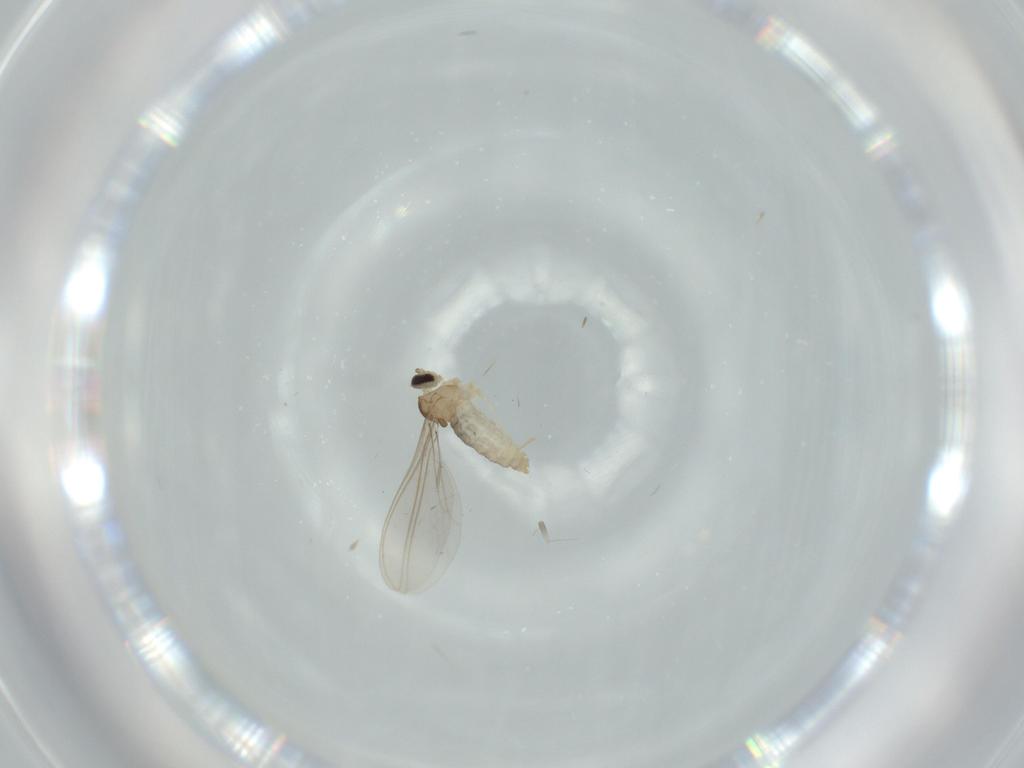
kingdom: Animalia
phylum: Arthropoda
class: Insecta
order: Diptera
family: Cecidomyiidae
